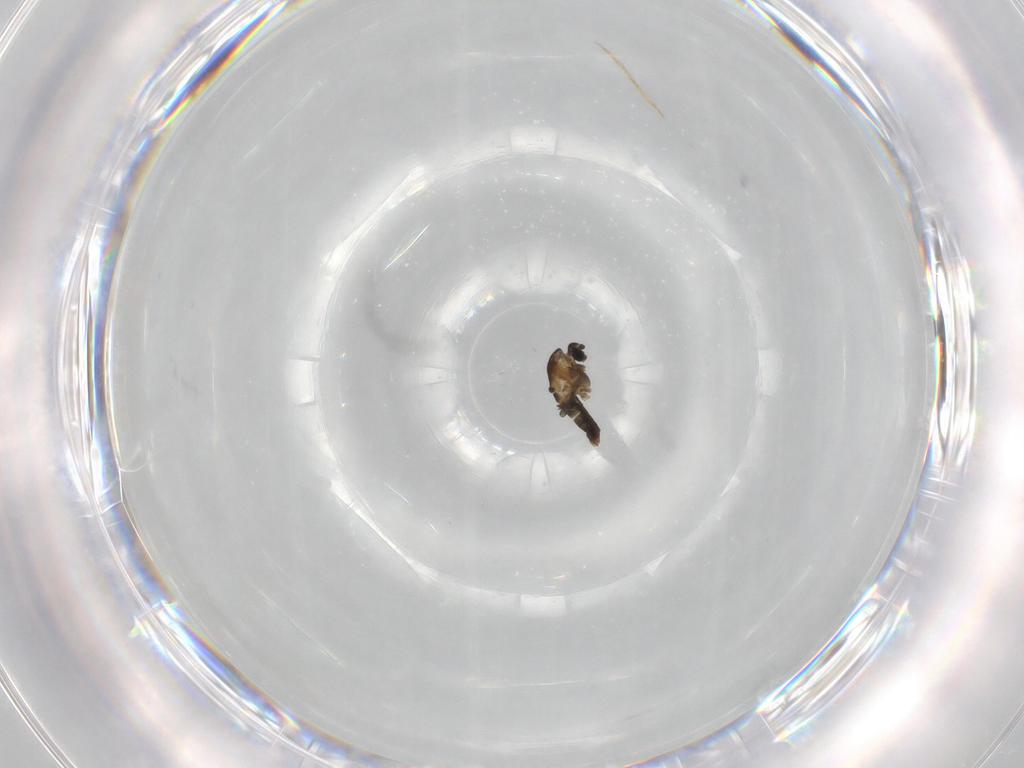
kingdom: Animalia
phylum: Arthropoda
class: Insecta
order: Diptera
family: Chironomidae
